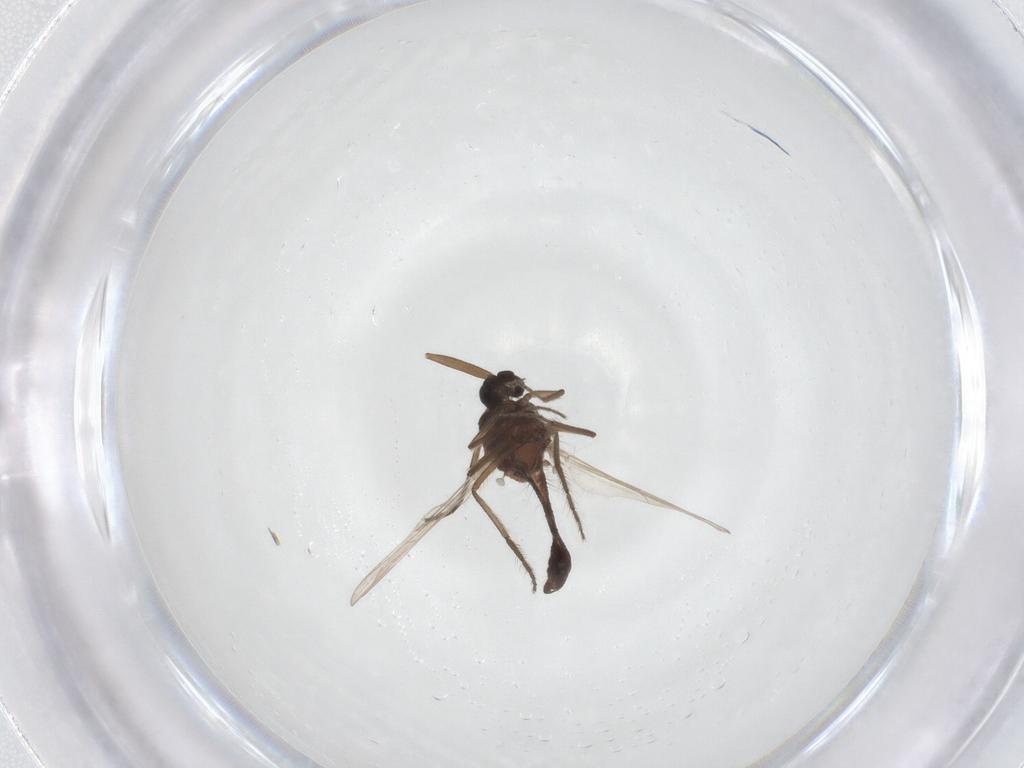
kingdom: Animalia
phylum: Arthropoda
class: Insecta
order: Diptera
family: Ceratopogonidae
